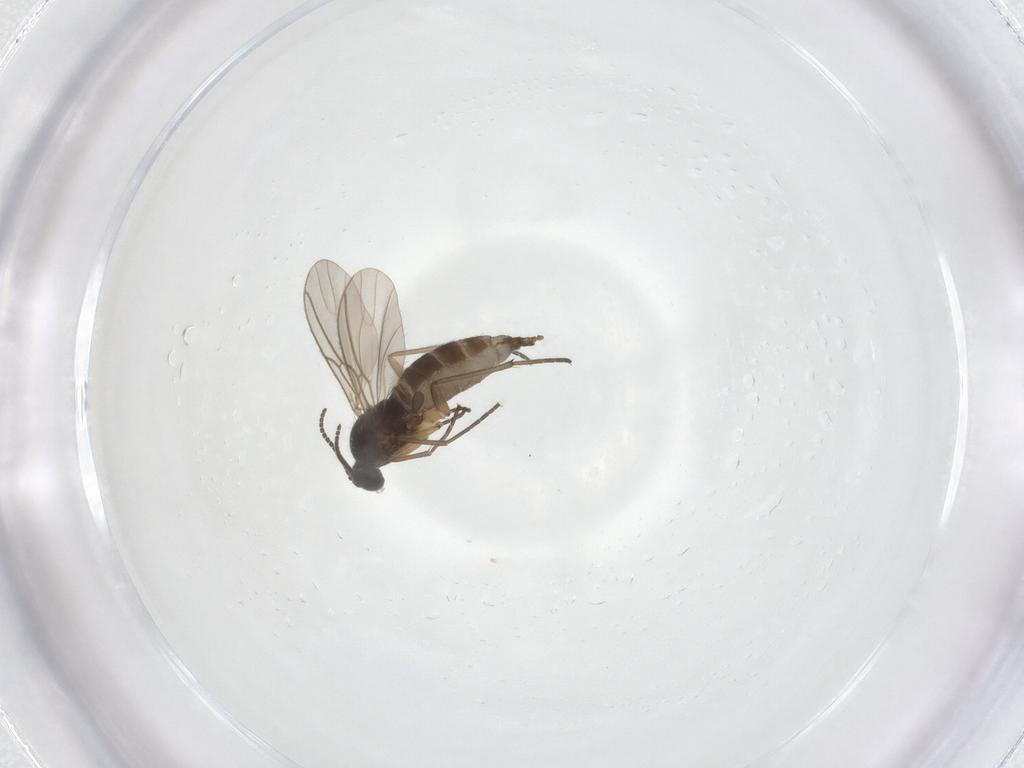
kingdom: Animalia
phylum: Arthropoda
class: Insecta
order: Diptera
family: Sciaridae
